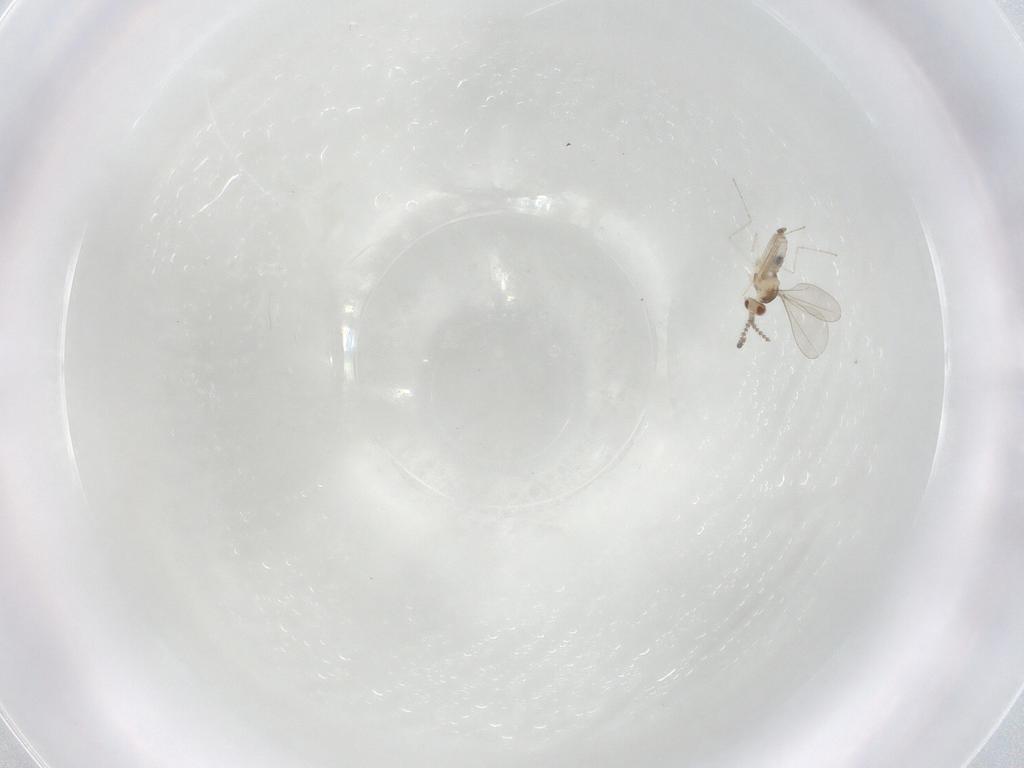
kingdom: Animalia
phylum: Arthropoda
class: Insecta
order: Diptera
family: Cecidomyiidae
